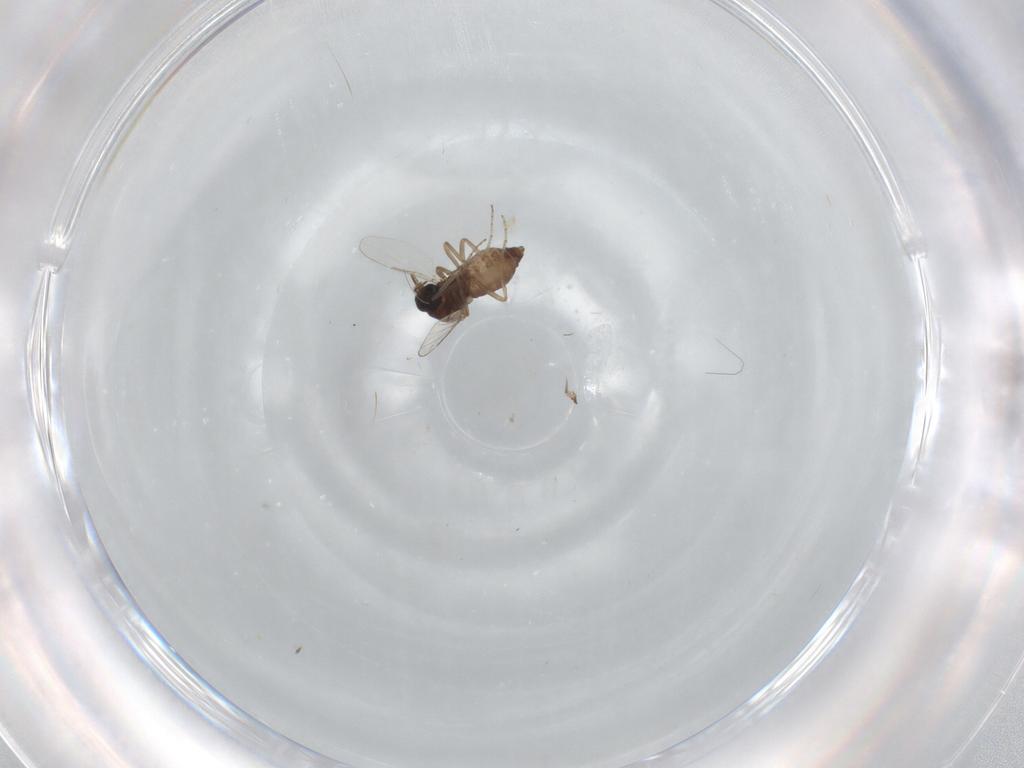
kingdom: Animalia
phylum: Arthropoda
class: Insecta
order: Diptera
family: Ceratopogonidae
